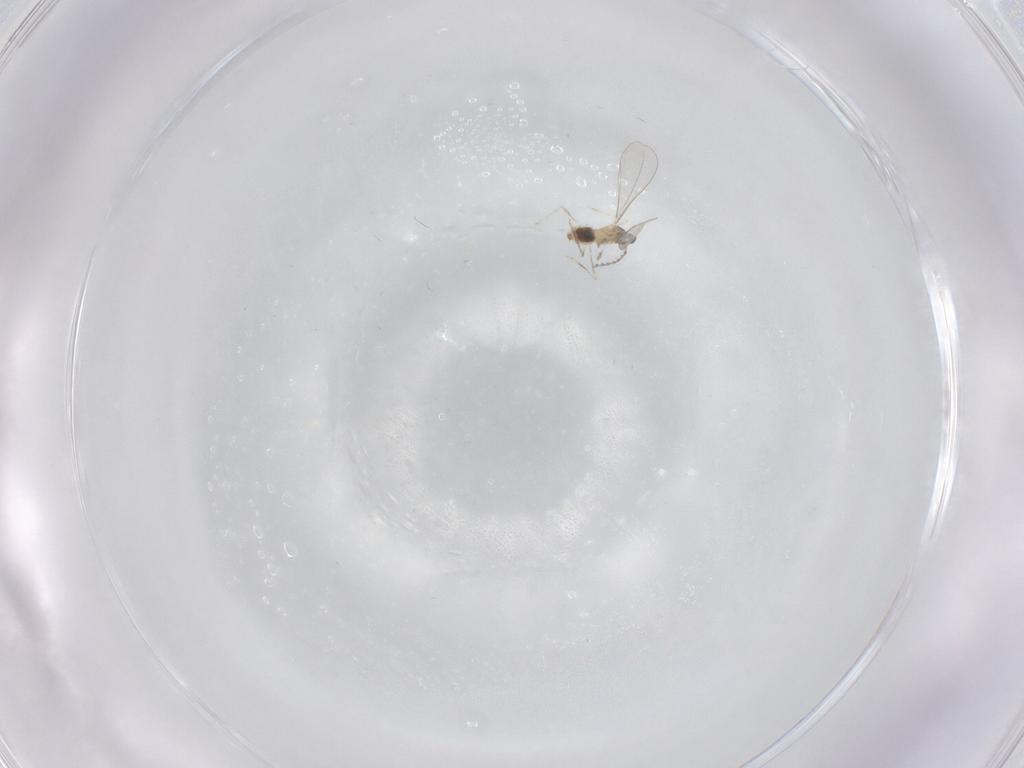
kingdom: Animalia
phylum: Arthropoda
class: Insecta
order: Diptera
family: Cecidomyiidae
